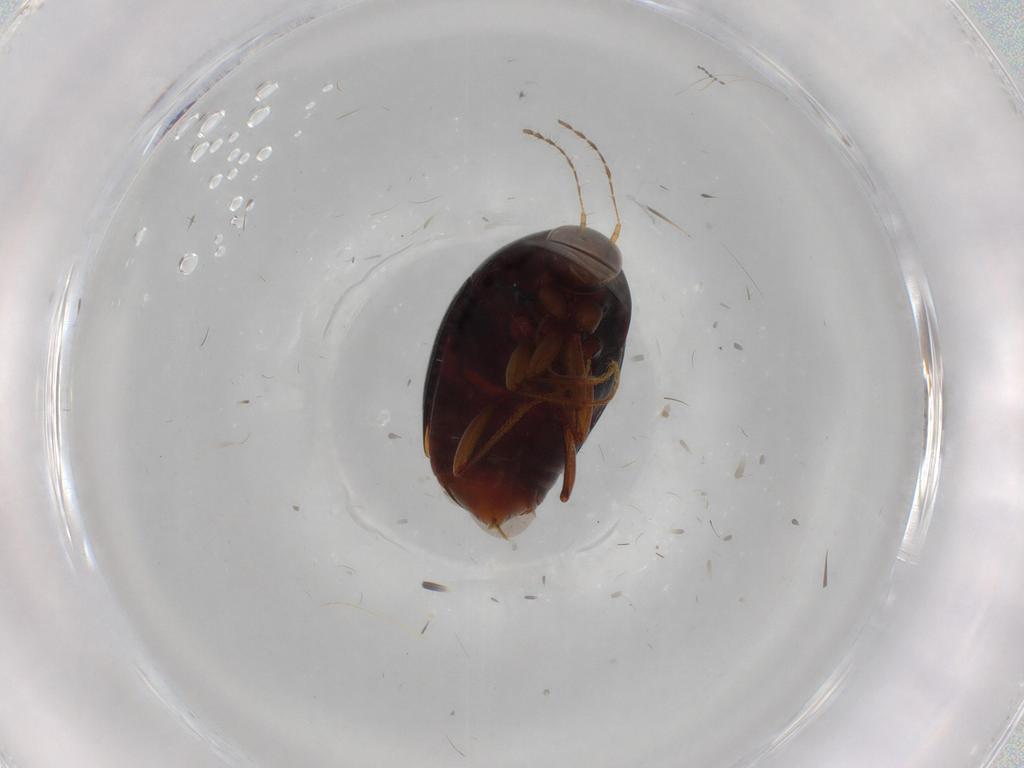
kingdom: Animalia
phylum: Arthropoda
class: Insecta
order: Coleoptera
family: Staphylinidae
